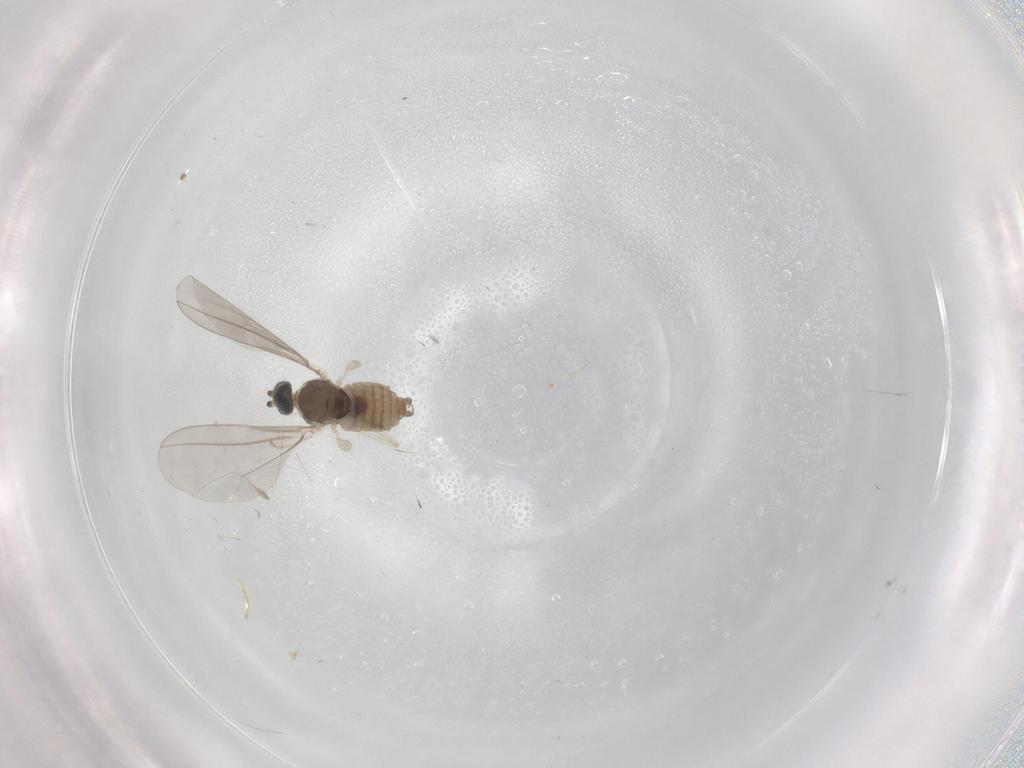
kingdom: Animalia
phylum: Arthropoda
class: Insecta
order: Diptera
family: Cecidomyiidae
